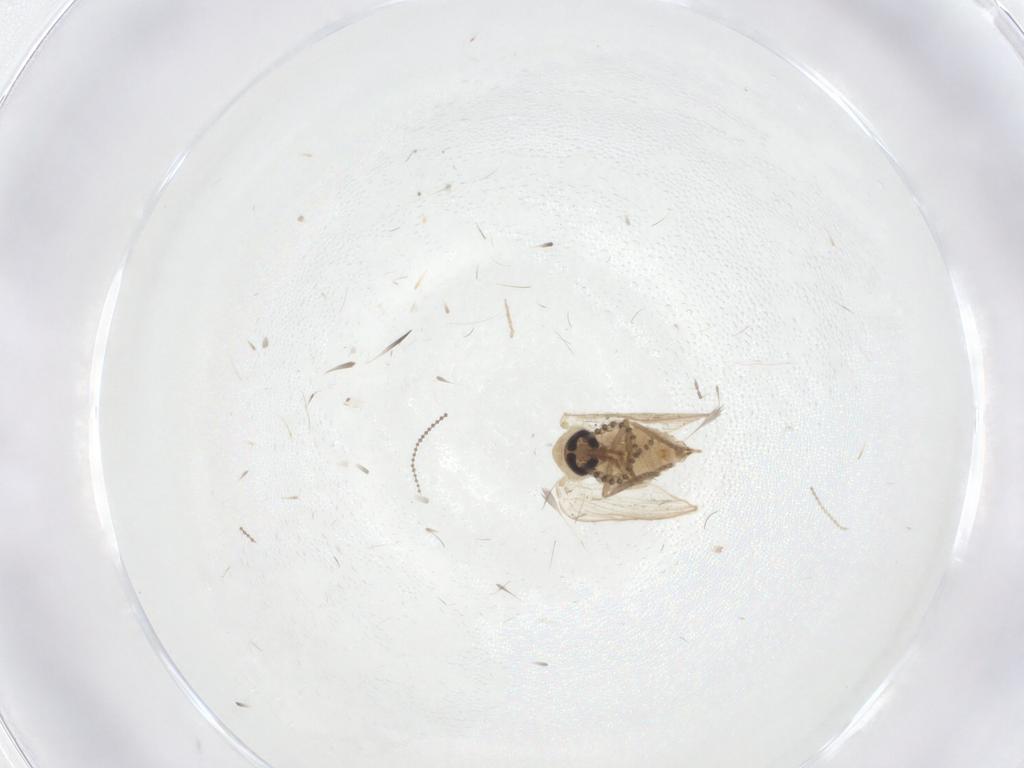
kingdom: Animalia
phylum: Arthropoda
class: Insecta
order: Diptera
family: Psychodidae
